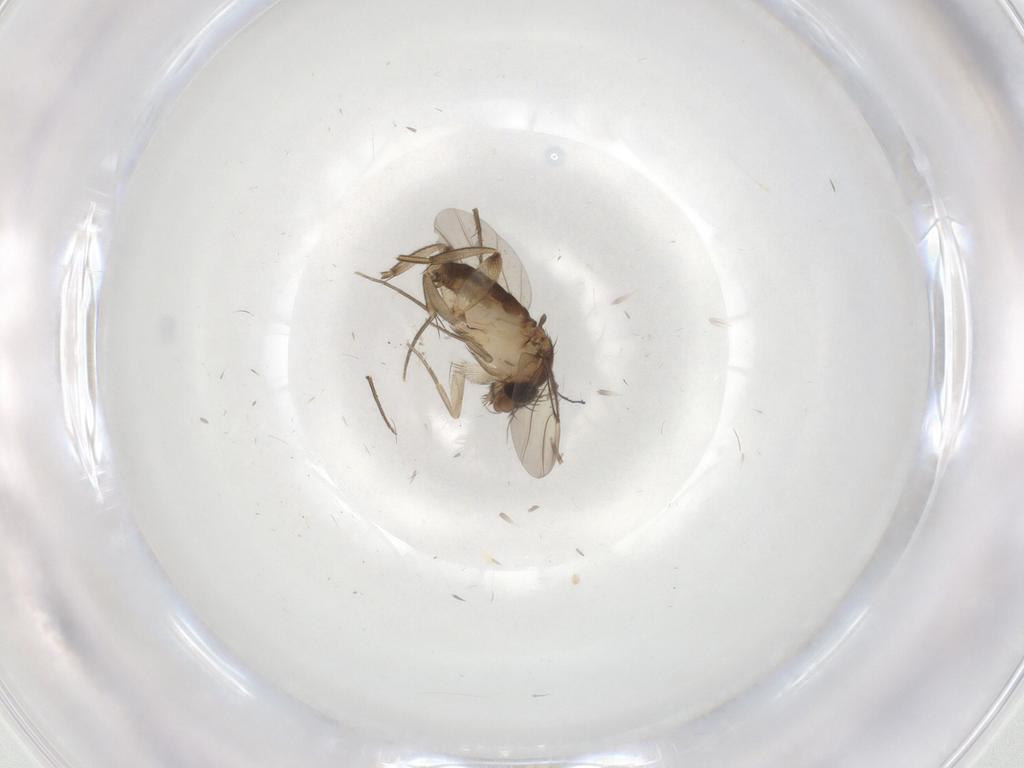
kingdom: Animalia
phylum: Arthropoda
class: Insecta
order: Diptera
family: Phoridae
